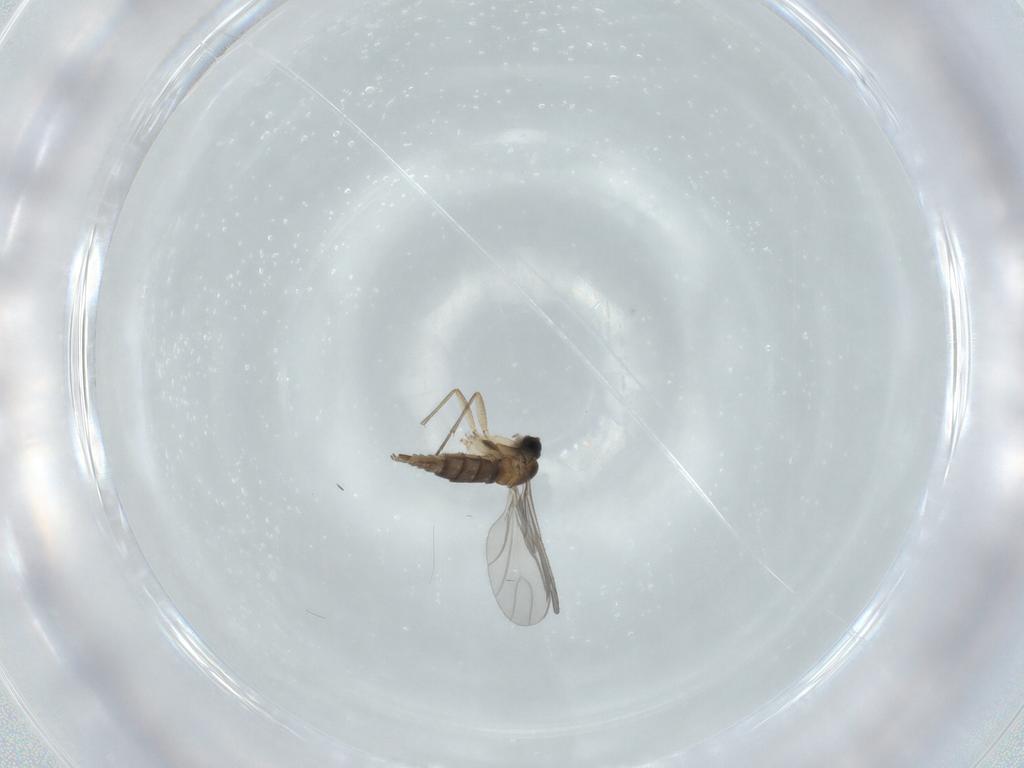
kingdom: Animalia
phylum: Arthropoda
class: Insecta
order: Diptera
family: Sciaridae
